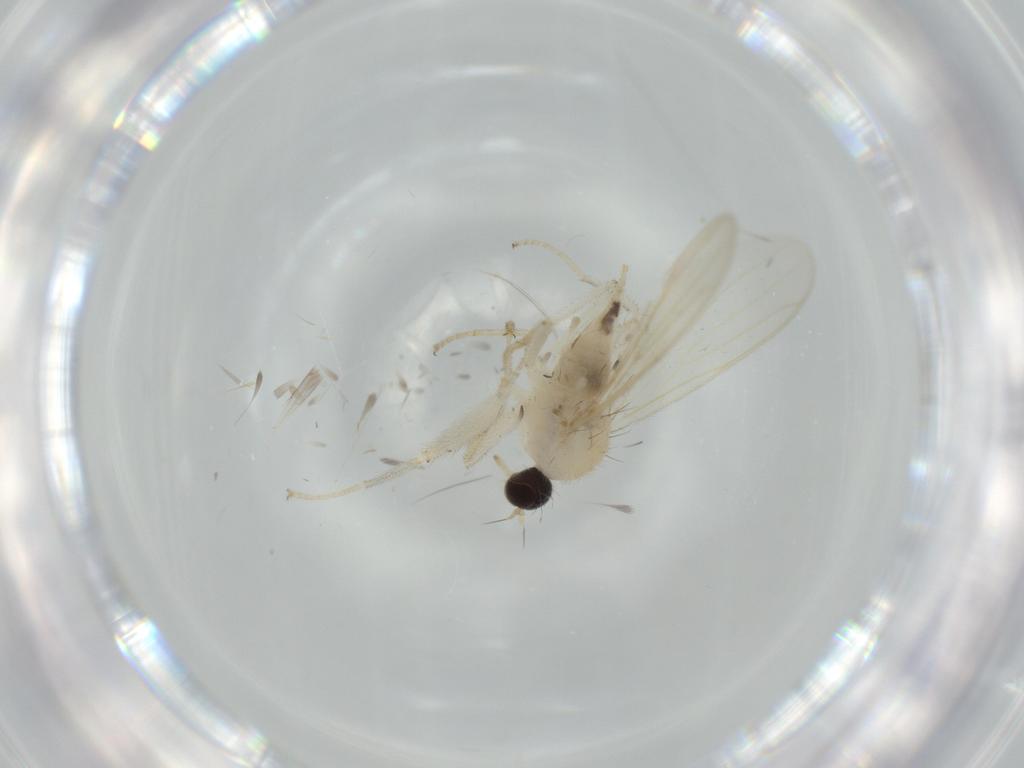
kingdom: Animalia
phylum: Arthropoda
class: Insecta
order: Diptera
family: Hybotidae
